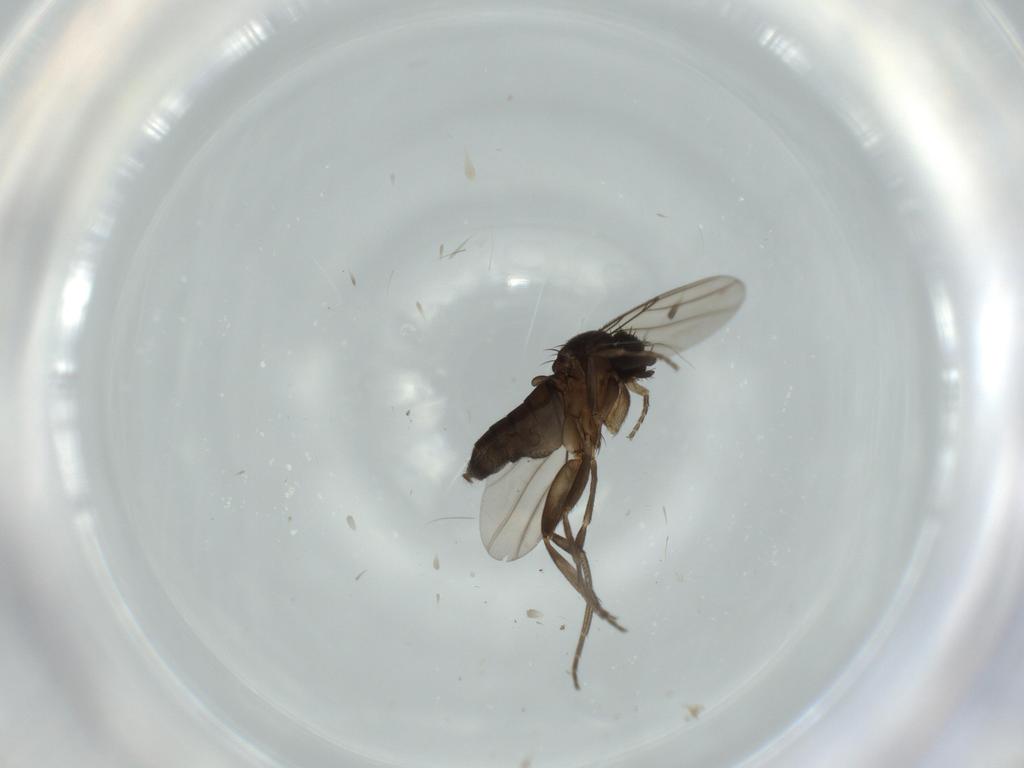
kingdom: Animalia
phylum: Arthropoda
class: Insecta
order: Diptera
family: Phoridae
